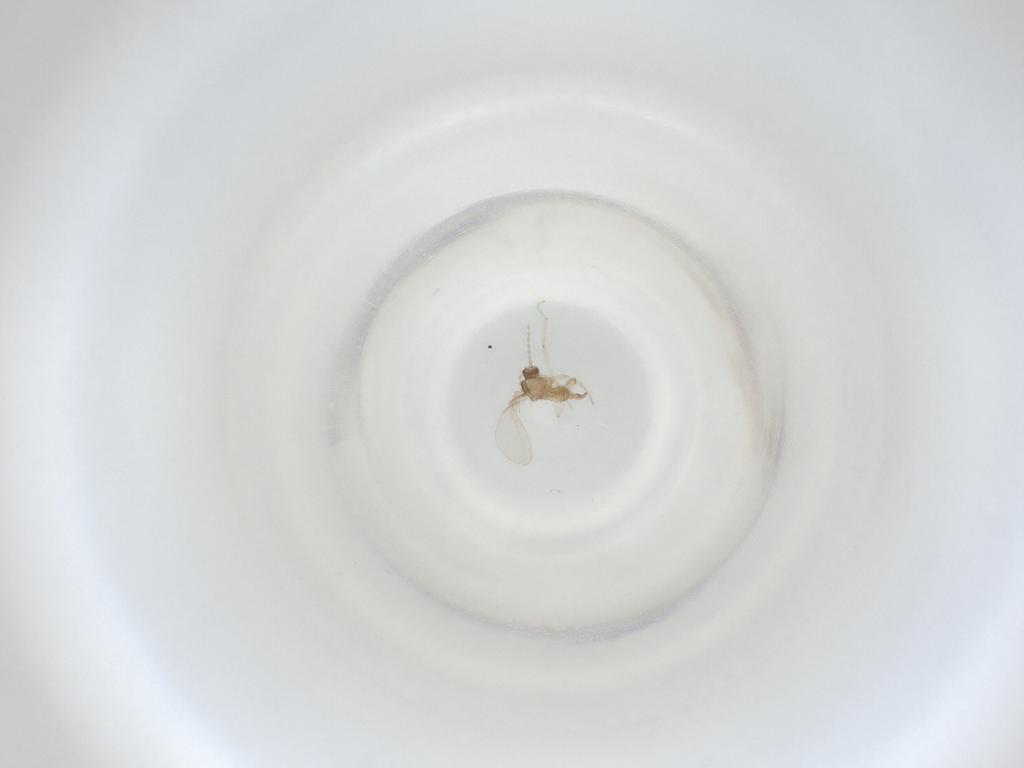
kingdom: Animalia
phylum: Arthropoda
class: Insecta
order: Diptera
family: Cecidomyiidae
